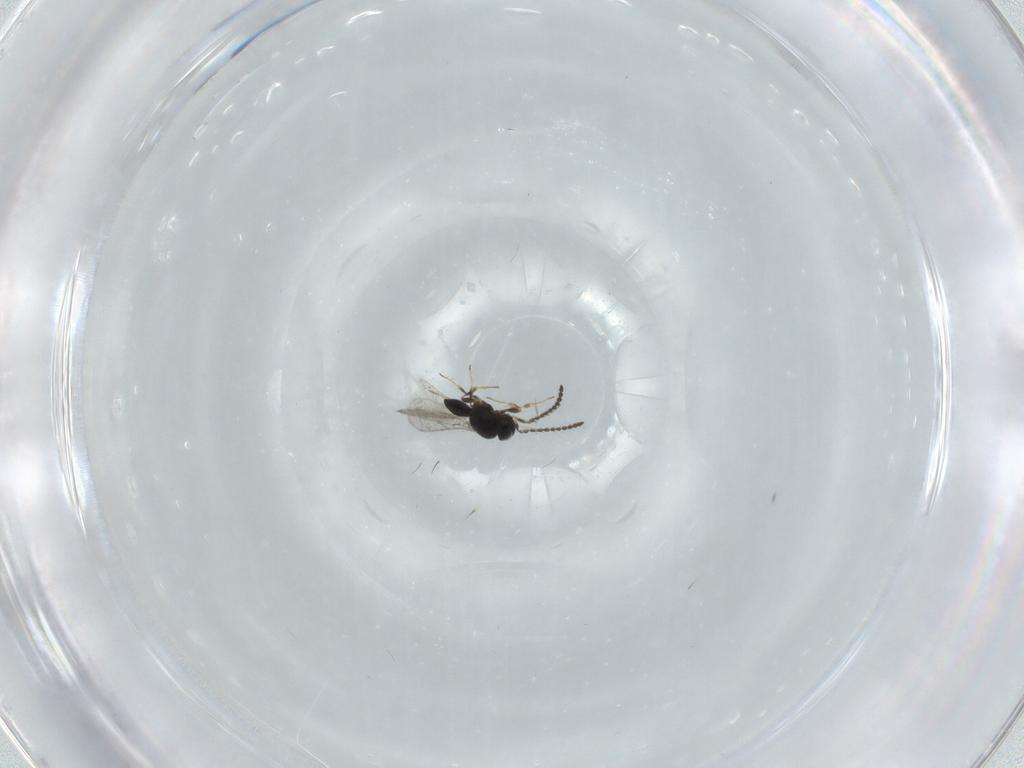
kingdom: Animalia
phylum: Arthropoda
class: Insecta
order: Hymenoptera
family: Scelionidae
